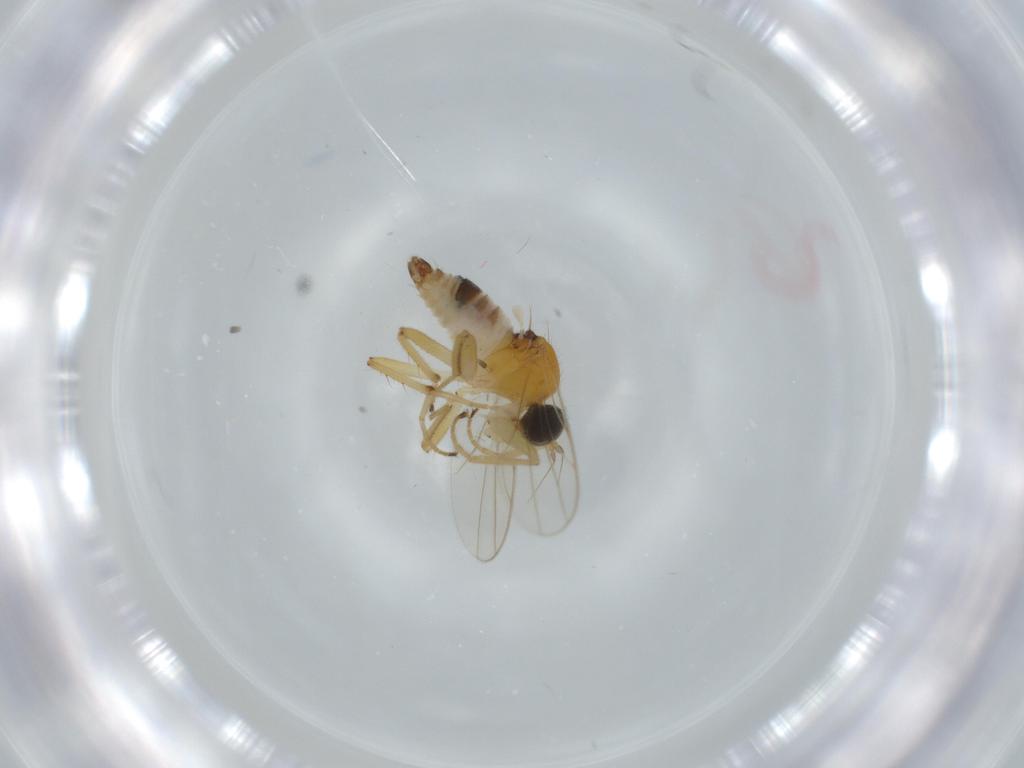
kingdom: Animalia
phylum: Arthropoda
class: Insecta
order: Diptera
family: Hybotidae
